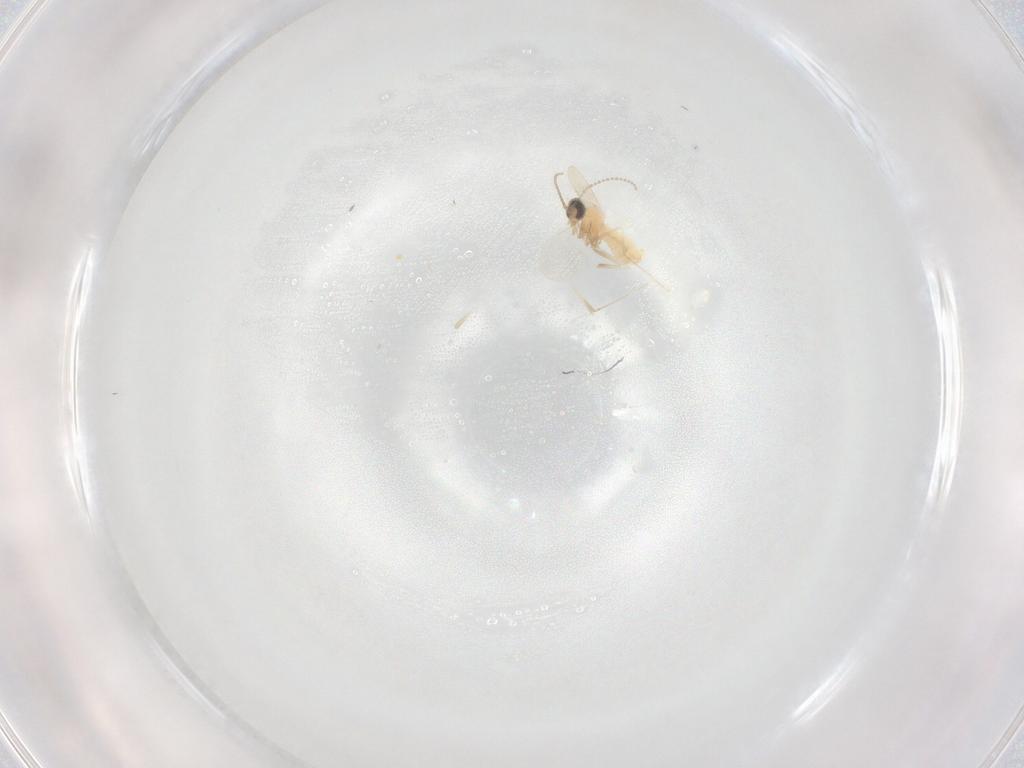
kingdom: Animalia
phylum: Arthropoda
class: Insecta
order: Diptera
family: Cecidomyiidae
